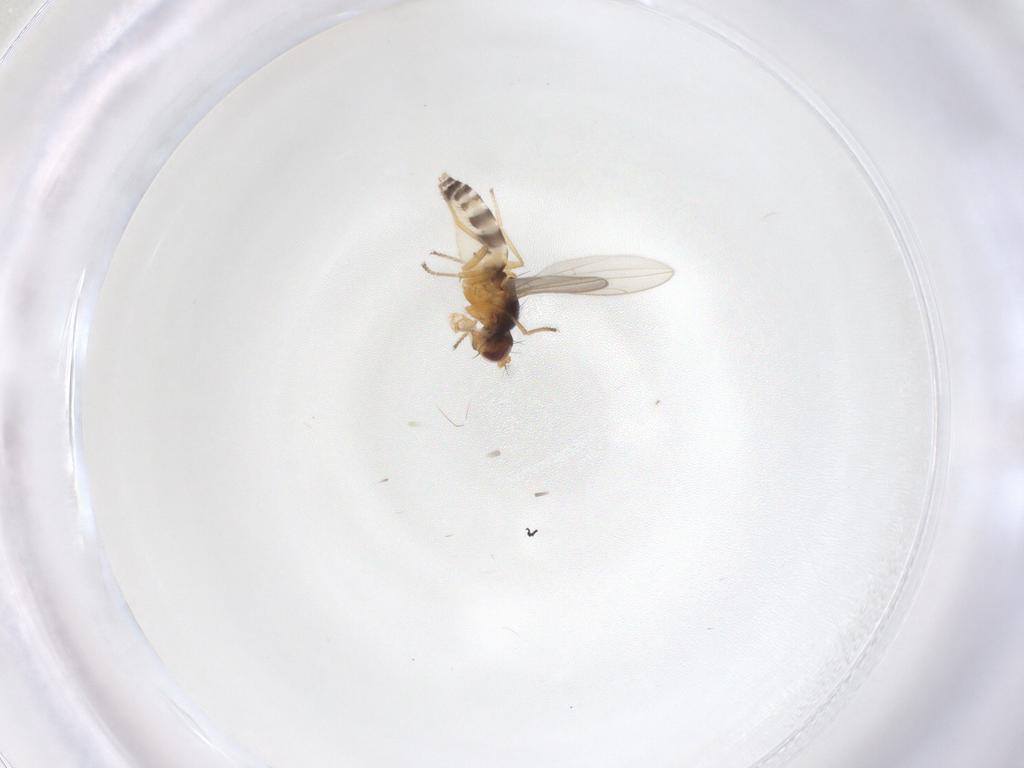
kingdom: Animalia
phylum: Arthropoda
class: Insecta
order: Diptera
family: Periscelididae
